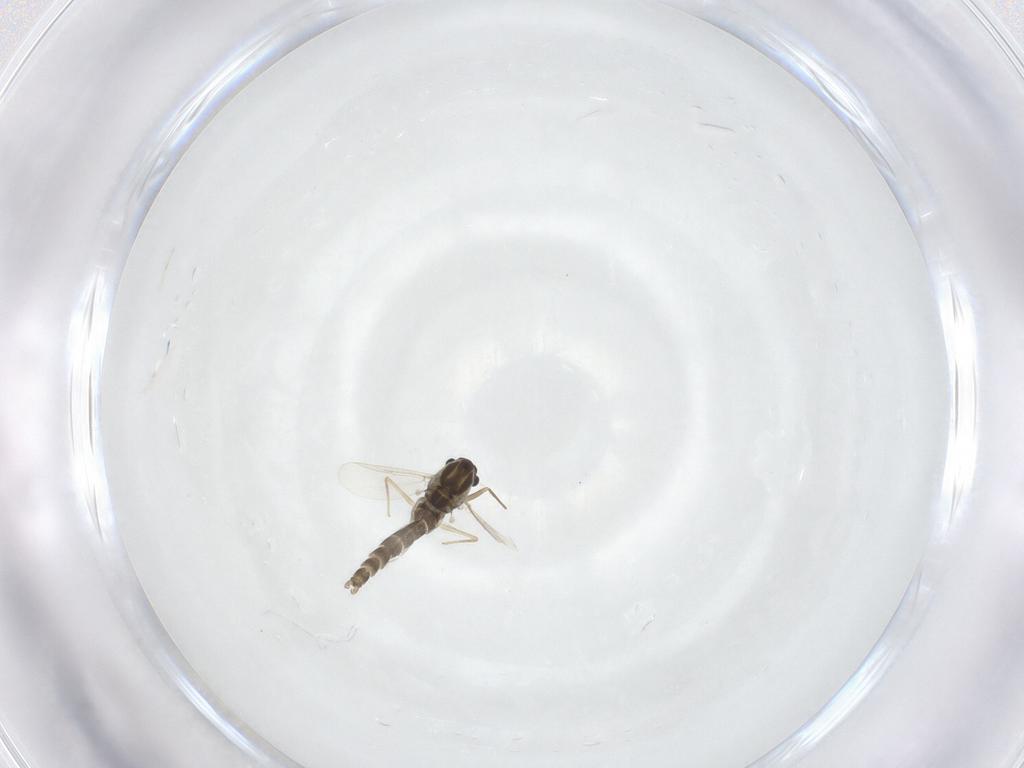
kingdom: Animalia
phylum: Arthropoda
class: Insecta
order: Diptera
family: Chironomidae
